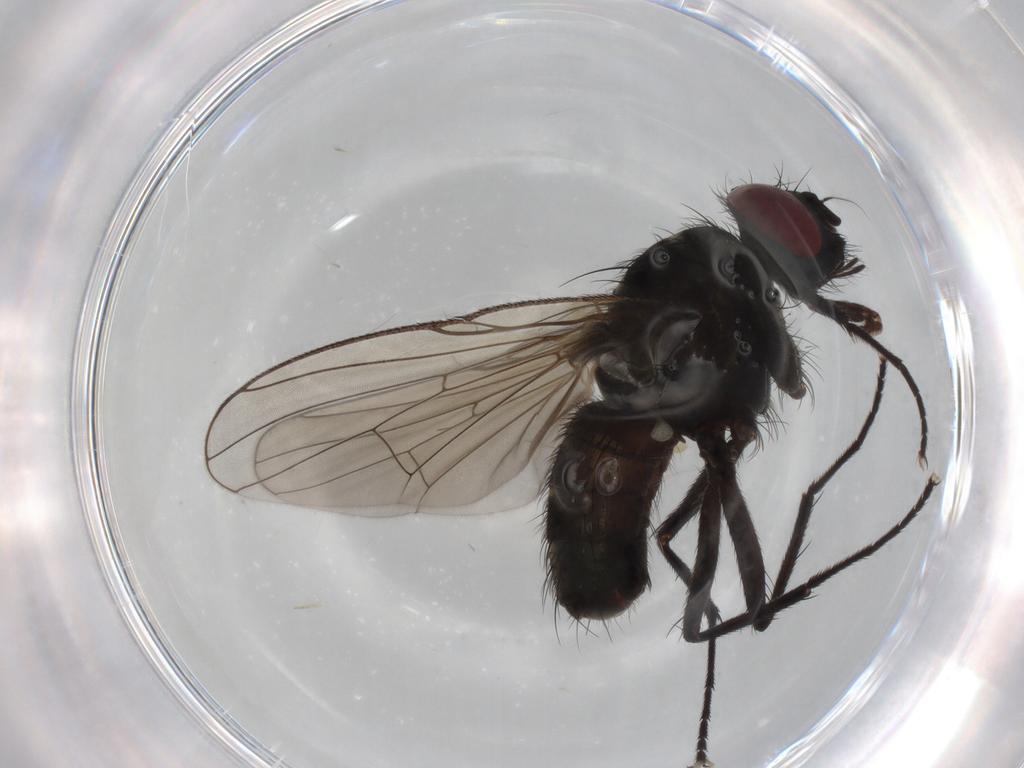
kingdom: Animalia
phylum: Arthropoda
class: Insecta
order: Diptera
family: Muscidae
